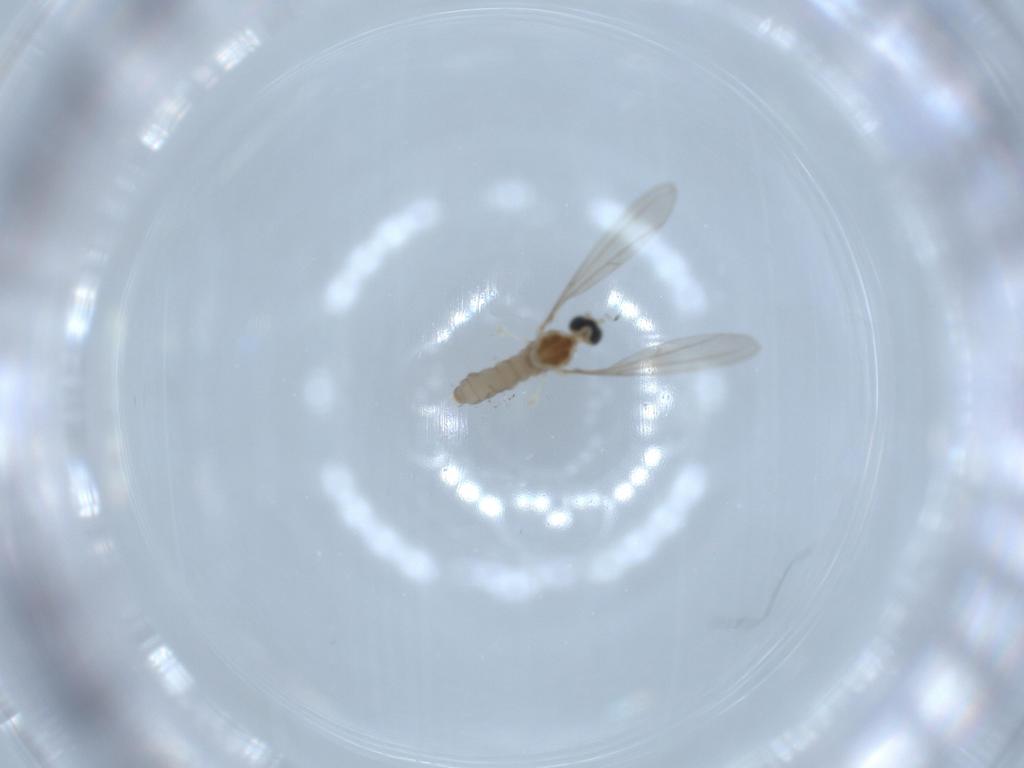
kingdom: Animalia
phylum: Arthropoda
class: Insecta
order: Diptera
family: Cecidomyiidae
